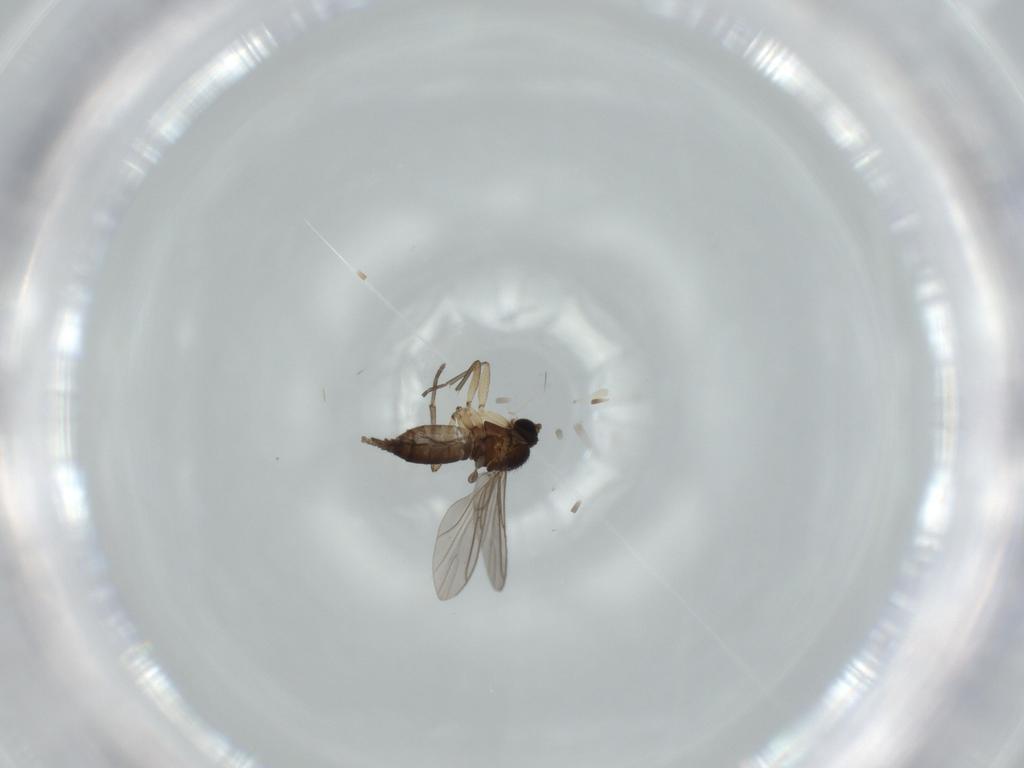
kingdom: Animalia
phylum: Arthropoda
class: Insecta
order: Diptera
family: Sciaridae
